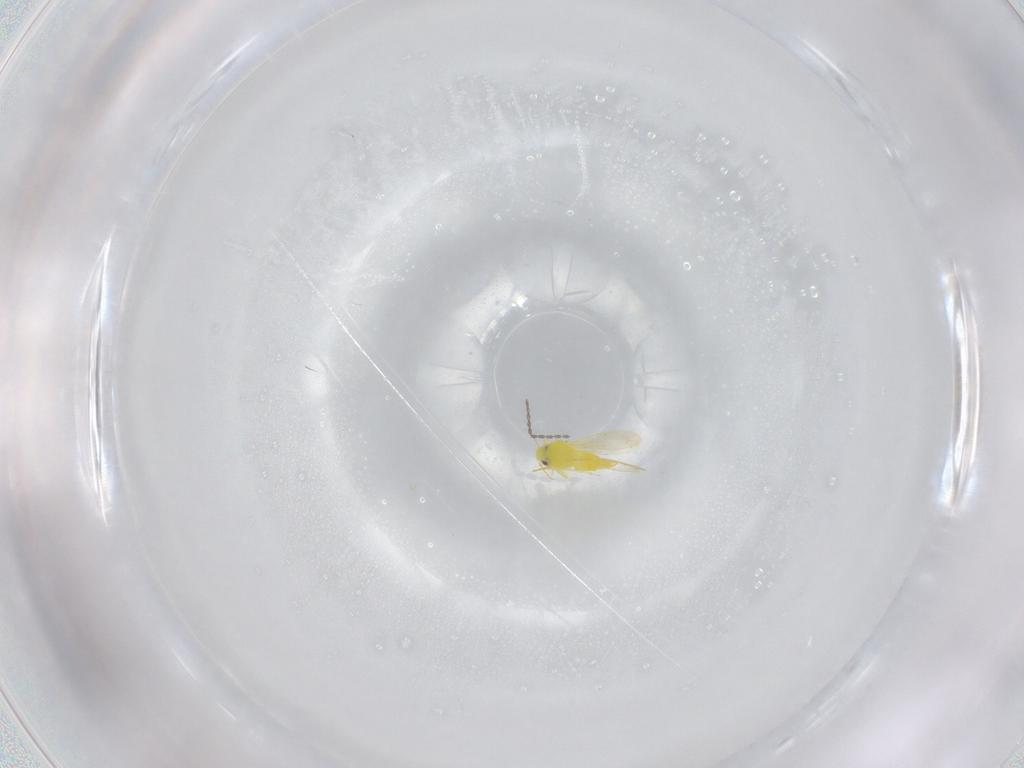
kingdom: Animalia
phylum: Arthropoda
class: Insecta
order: Hemiptera
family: Aleyrodidae
